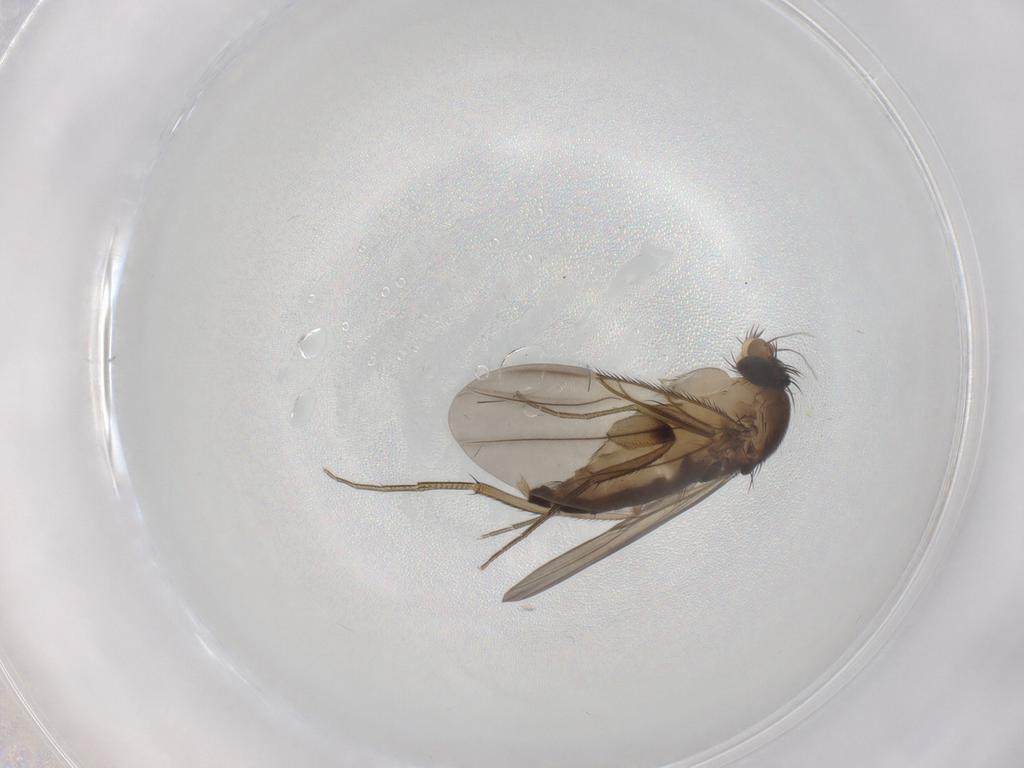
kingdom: Animalia
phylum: Arthropoda
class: Insecta
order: Diptera
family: Phoridae
